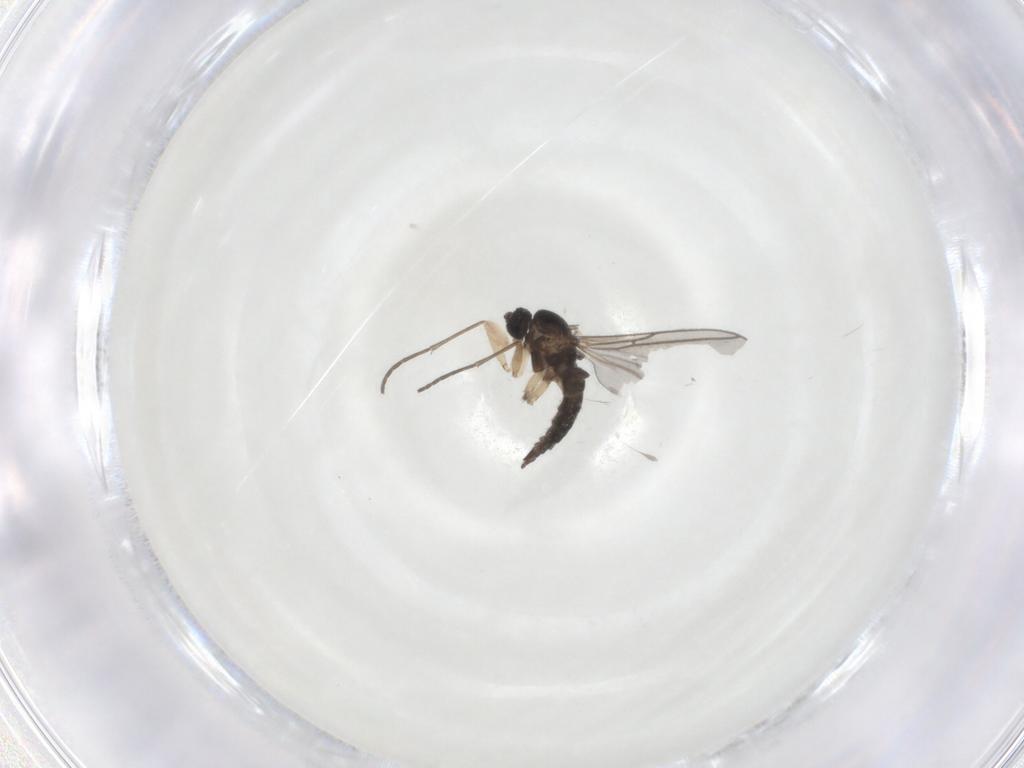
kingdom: Animalia
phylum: Arthropoda
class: Insecta
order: Diptera
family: Sciaridae
